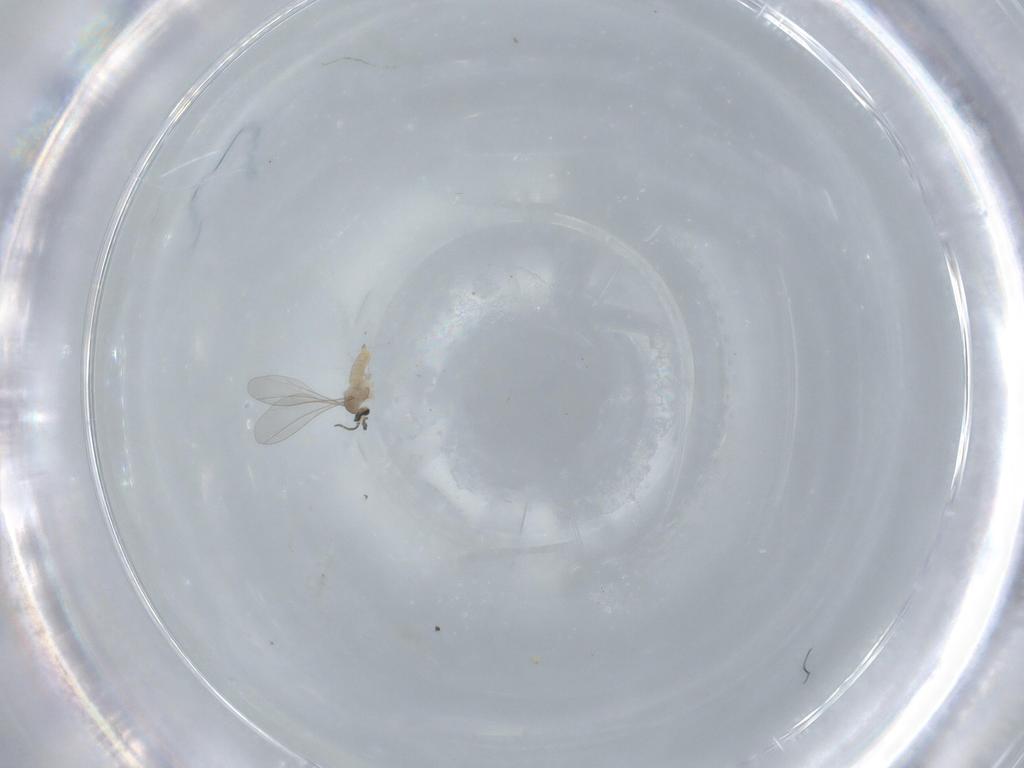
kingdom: Animalia
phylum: Arthropoda
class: Insecta
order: Diptera
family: Cecidomyiidae
